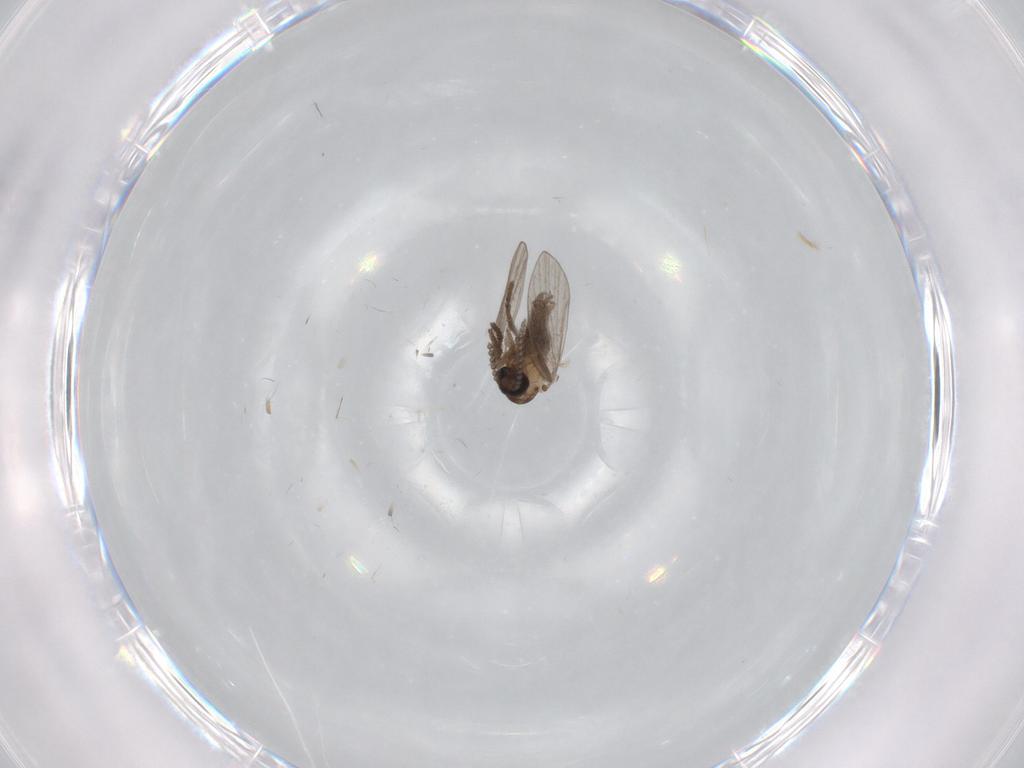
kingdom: Animalia
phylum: Arthropoda
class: Insecta
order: Diptera
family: Psychodidae
